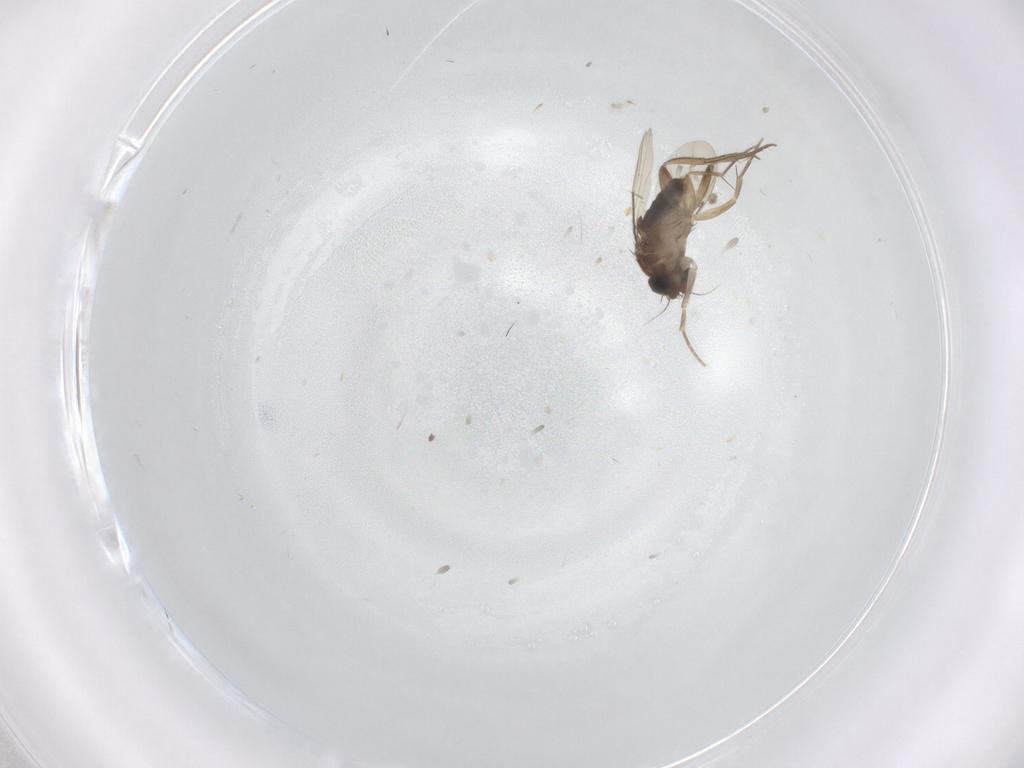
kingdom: Animalia
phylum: Arthropoda
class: Insecta
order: Diptera
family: Phoridae
